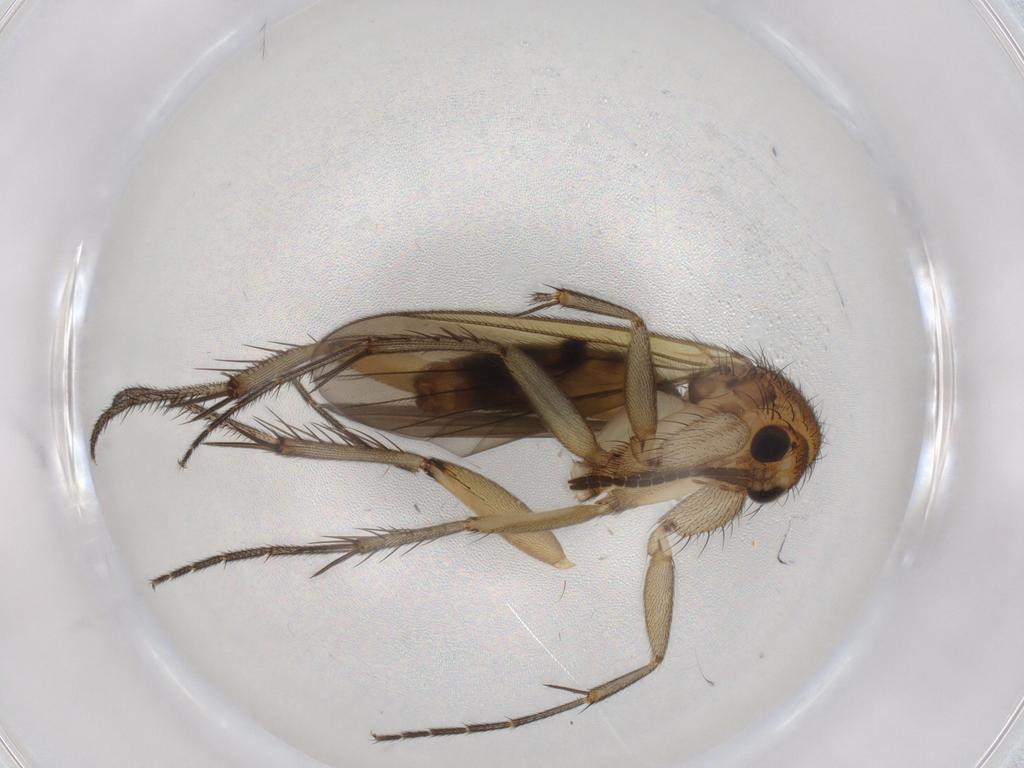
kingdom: Animalia
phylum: Arthropoda
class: Insecta
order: Diptera
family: Mycetophilidae
